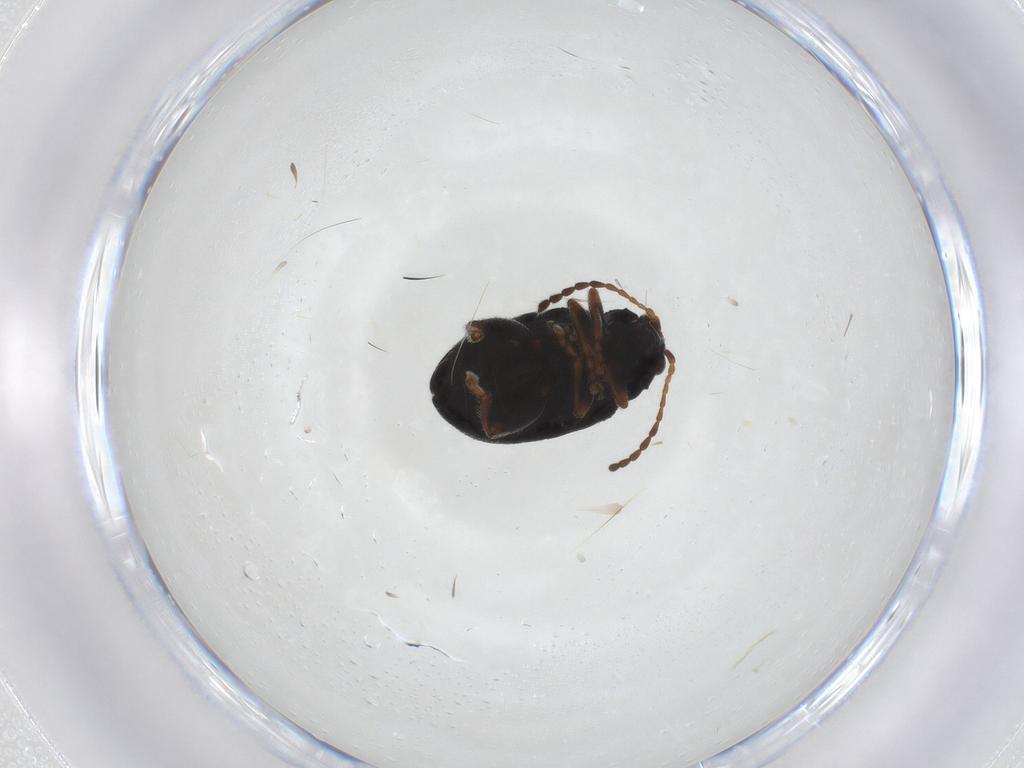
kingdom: Animalia
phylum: Arthropoda
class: Insecta
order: Coleoptera
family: Chrysomelidae
